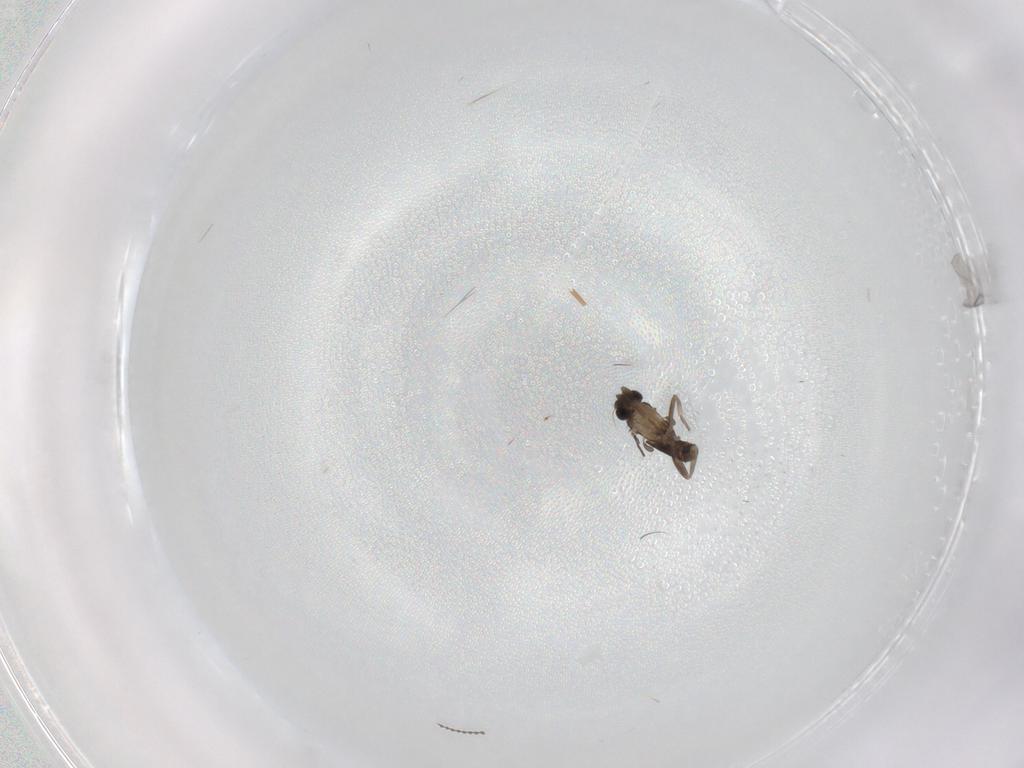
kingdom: Animalia
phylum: Arthropoda
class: Insecta
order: Diptera
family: Cecidomyiidae
